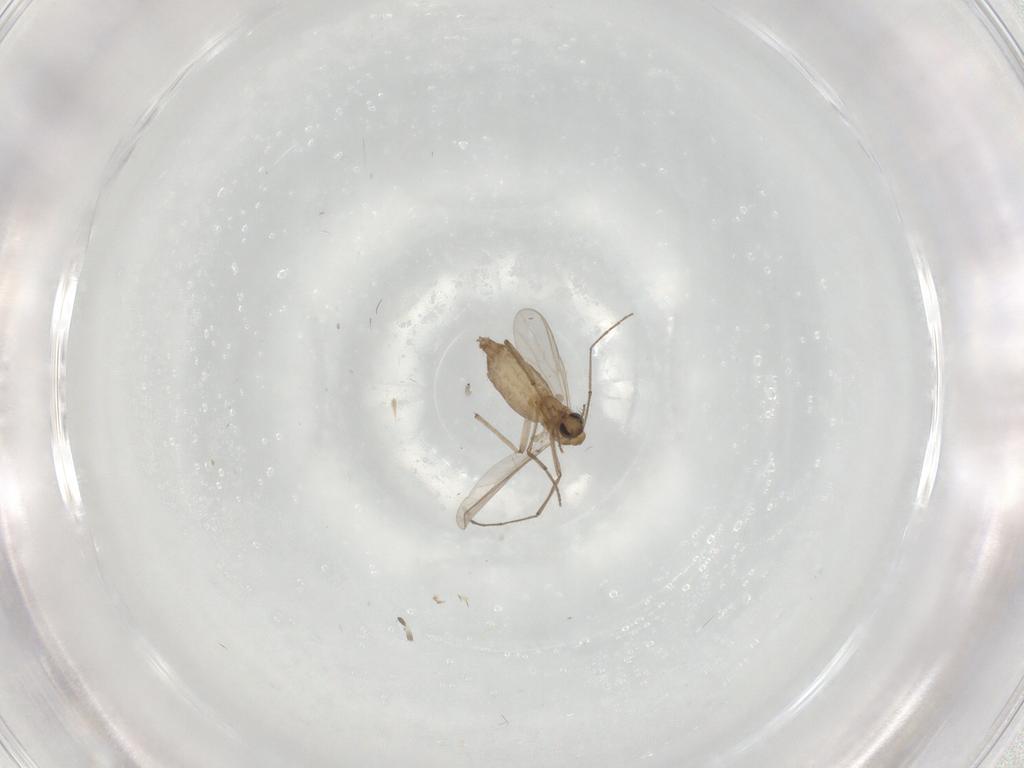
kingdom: Animalia
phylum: Arthropoda
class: Insecta
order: Diptera
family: Chironomidae
